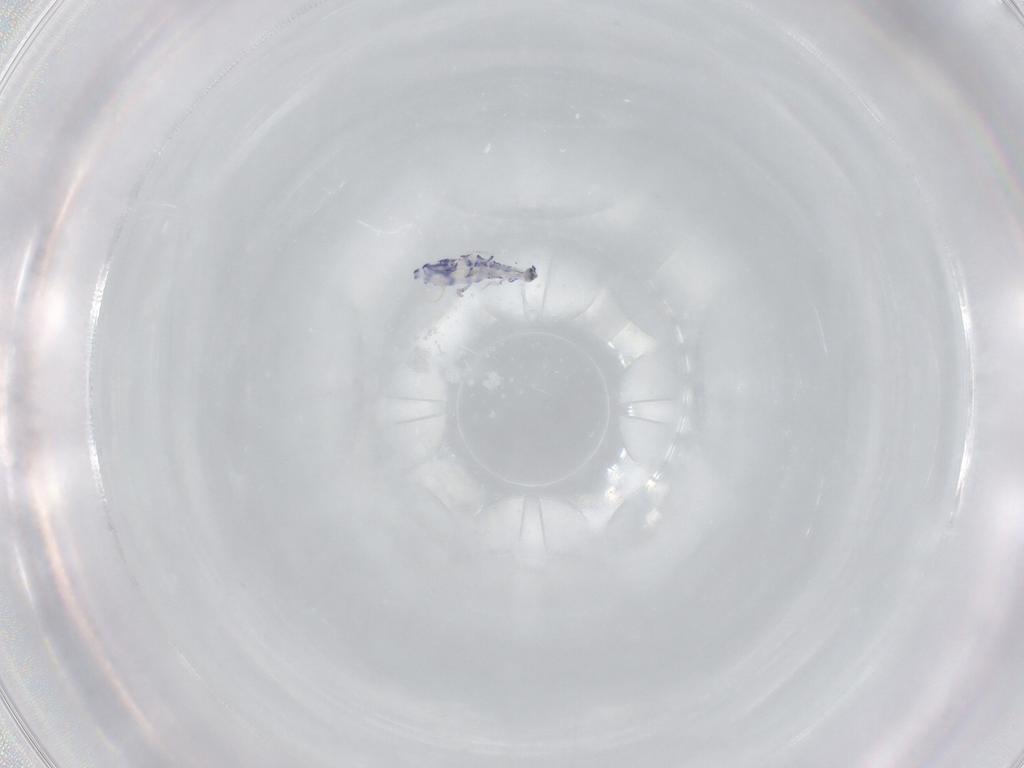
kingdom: Animalia
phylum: Arthropoda
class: Collembola
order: Entomobryomorpha
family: Entomobryidae
